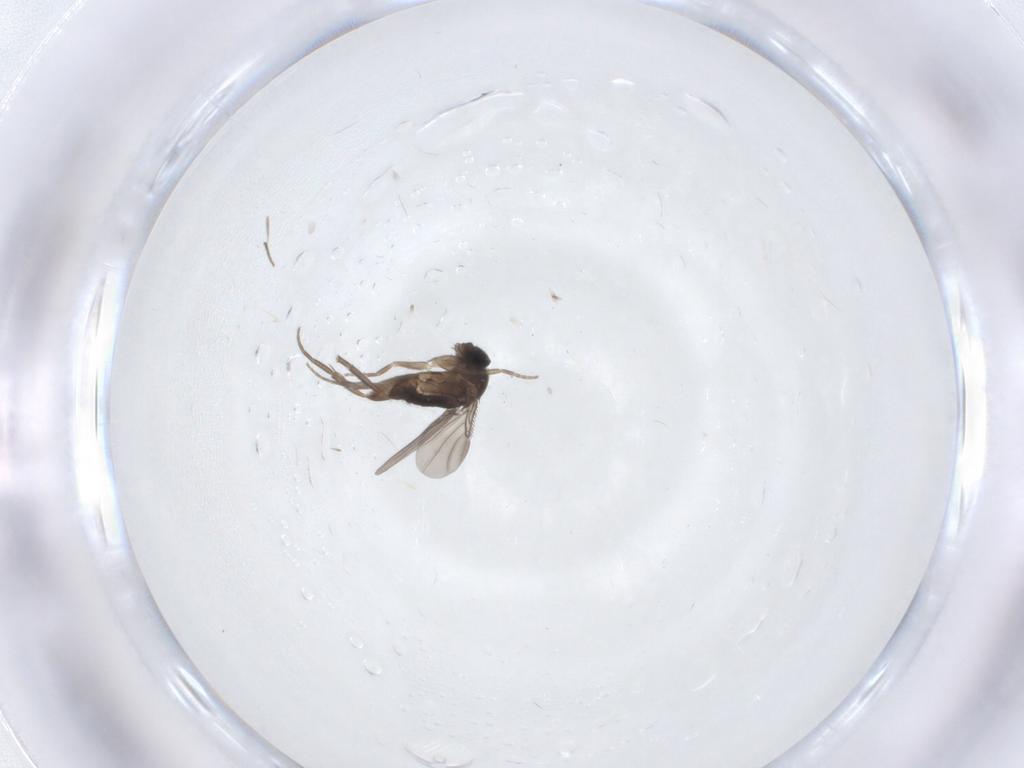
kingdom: Animalia
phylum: Arthropoda
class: Insecta
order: Diptera
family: Phoridae
